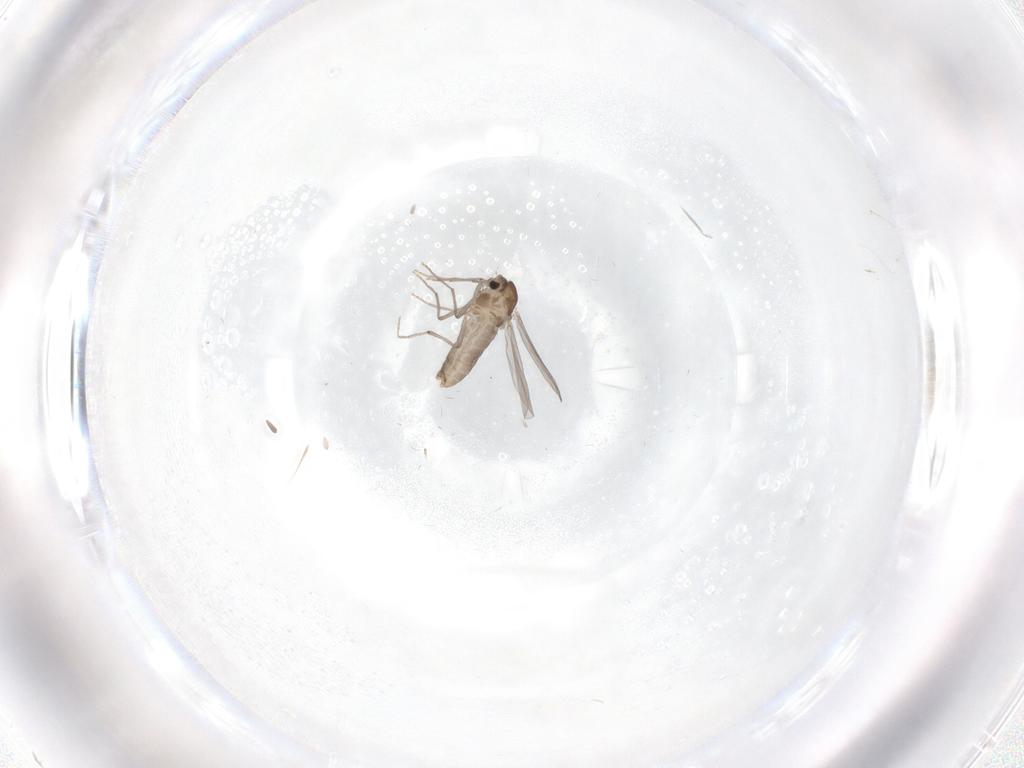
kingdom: Animalia
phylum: Arthropoda
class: Insecta
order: Diptera
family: Chironomidae
